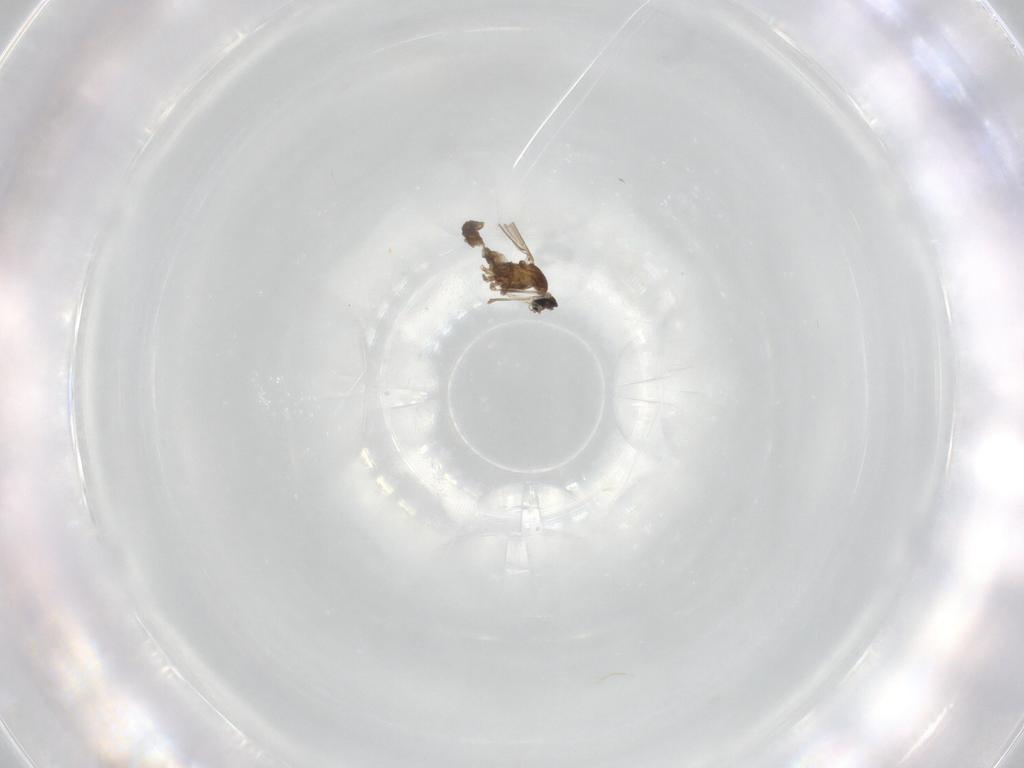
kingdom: Animalia
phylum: Arthropoda
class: Insecta
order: Diptera
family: Cecidomyiidae
